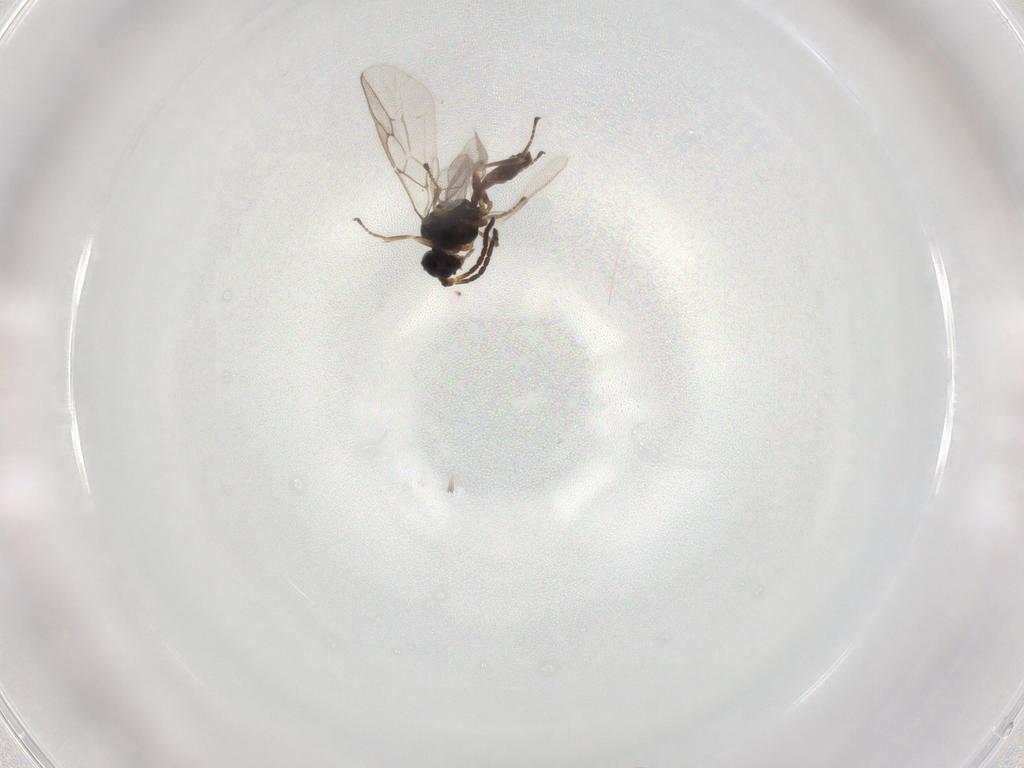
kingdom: Animalia
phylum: Arthropoda
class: Insecta
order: Hymenoptera
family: Braconidae
